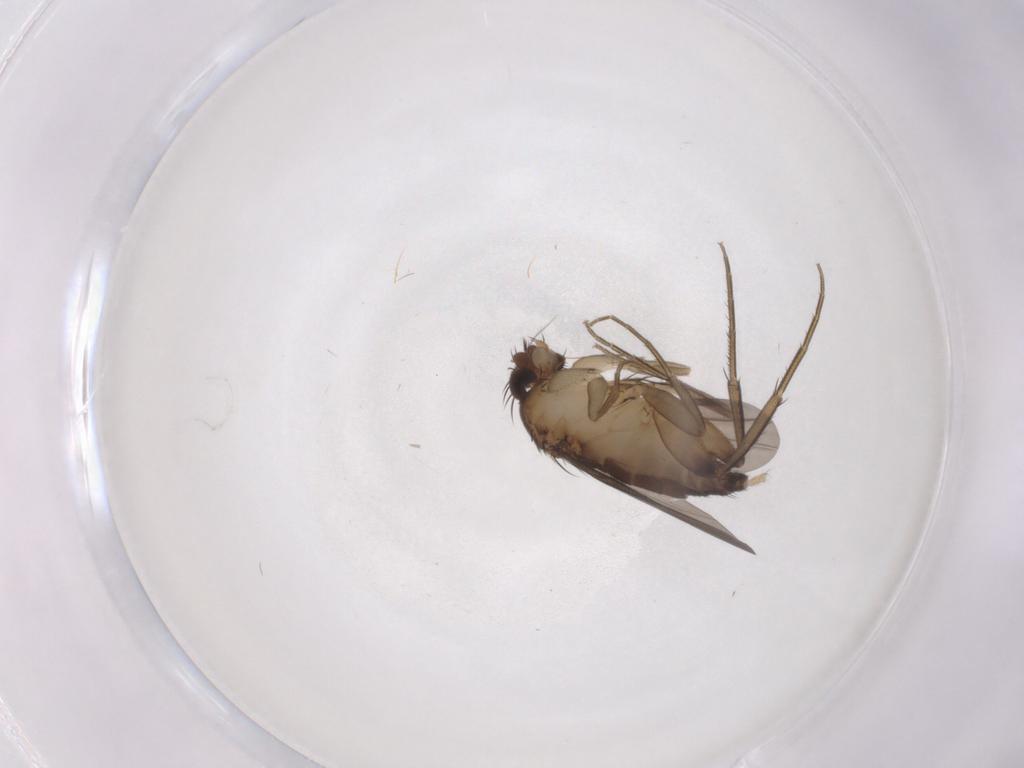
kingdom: Animalia
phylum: Arthropoda
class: Insecta
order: Diptera
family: Phoridae
